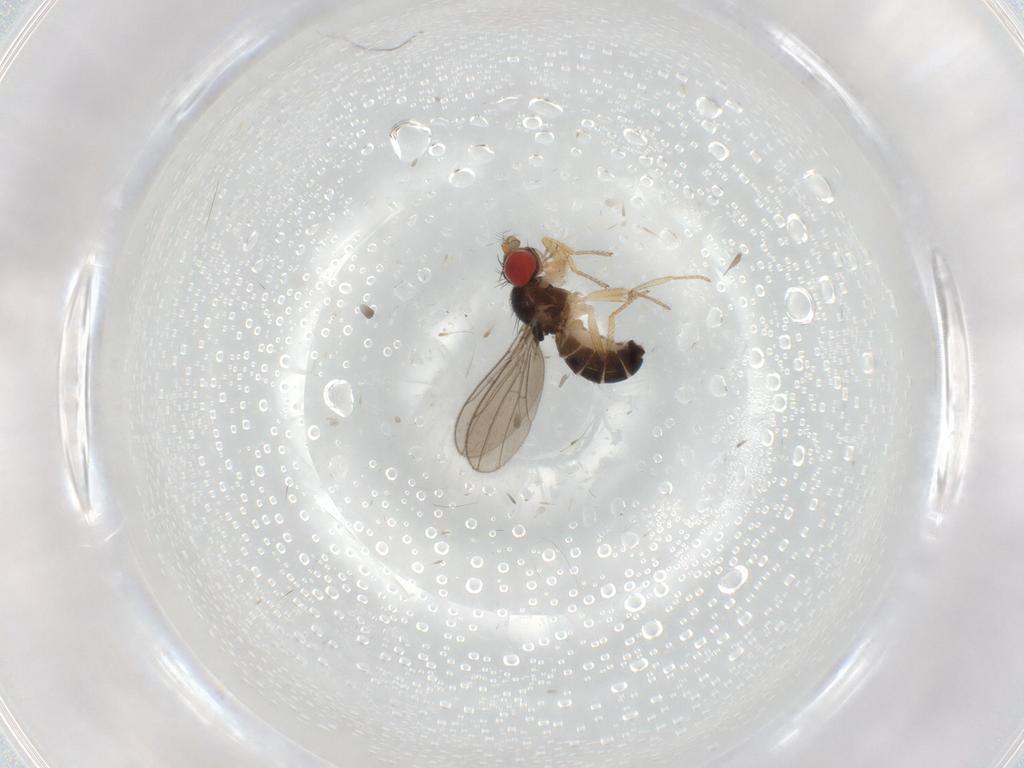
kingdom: Animalia
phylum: Arthropoda
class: Insecta
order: Diptera
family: Drosophilidae
